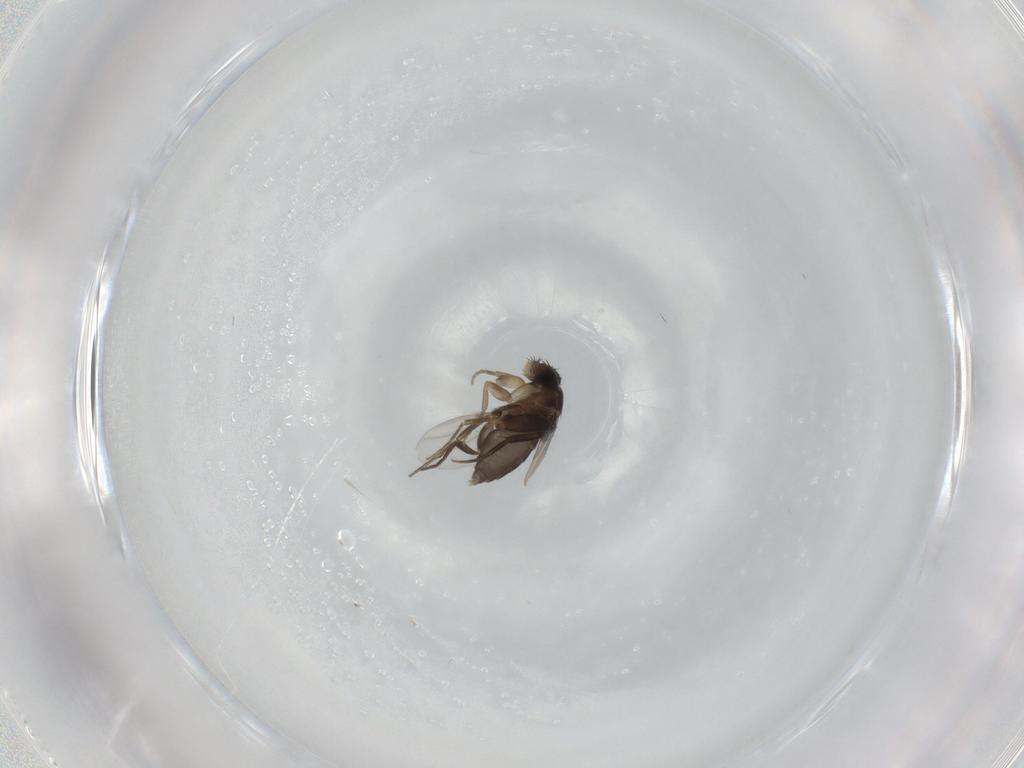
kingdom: Animalia
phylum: Arthropoda
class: Insecta
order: Diptera
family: Phoridae
